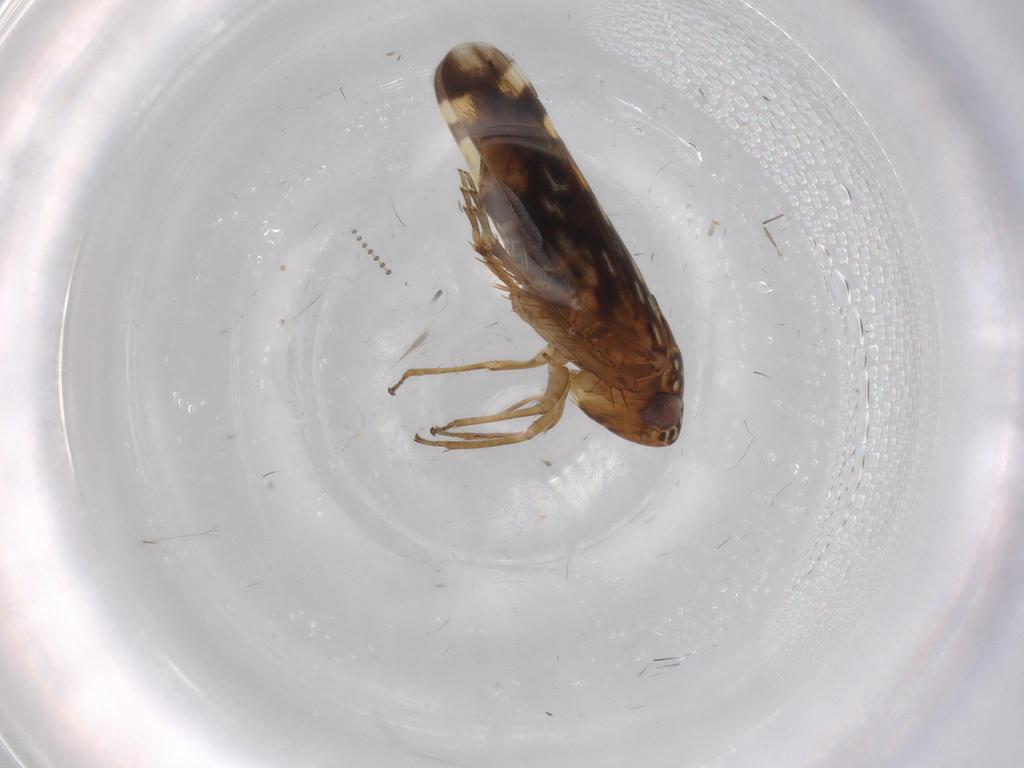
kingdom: Animalia
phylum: Arthropoda
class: Insecta
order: Hemiptera
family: Cicadellidae
